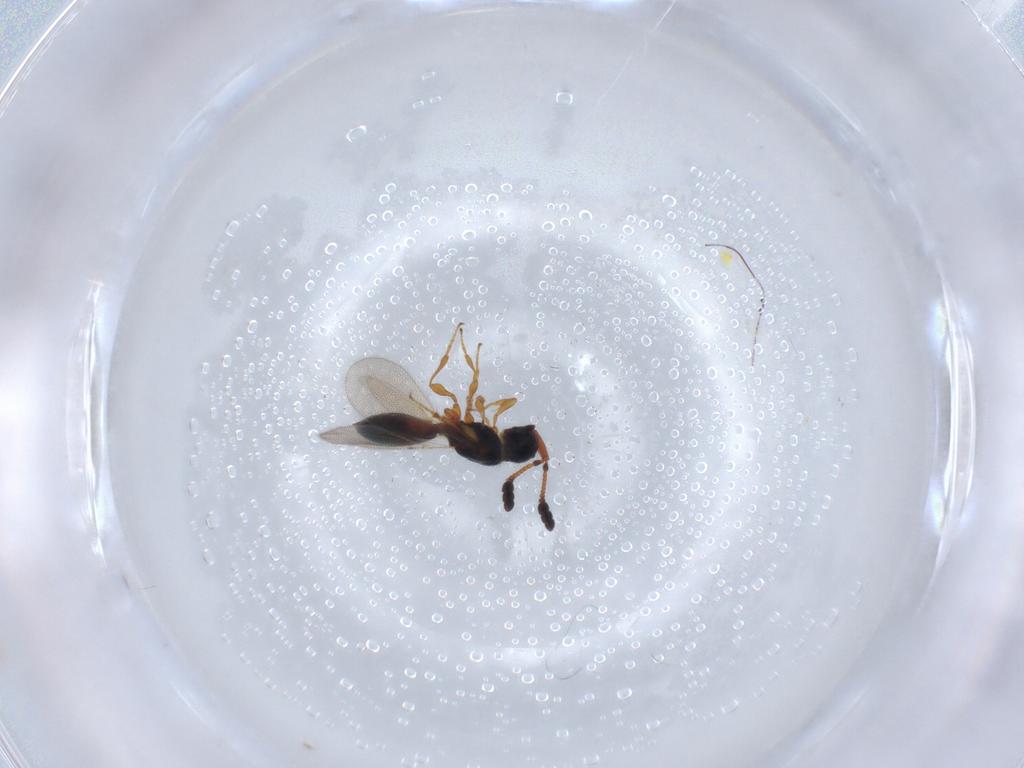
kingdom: Animalia
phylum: Arthropoda
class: Insecta
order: Hymenoptera
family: Diapriidae
